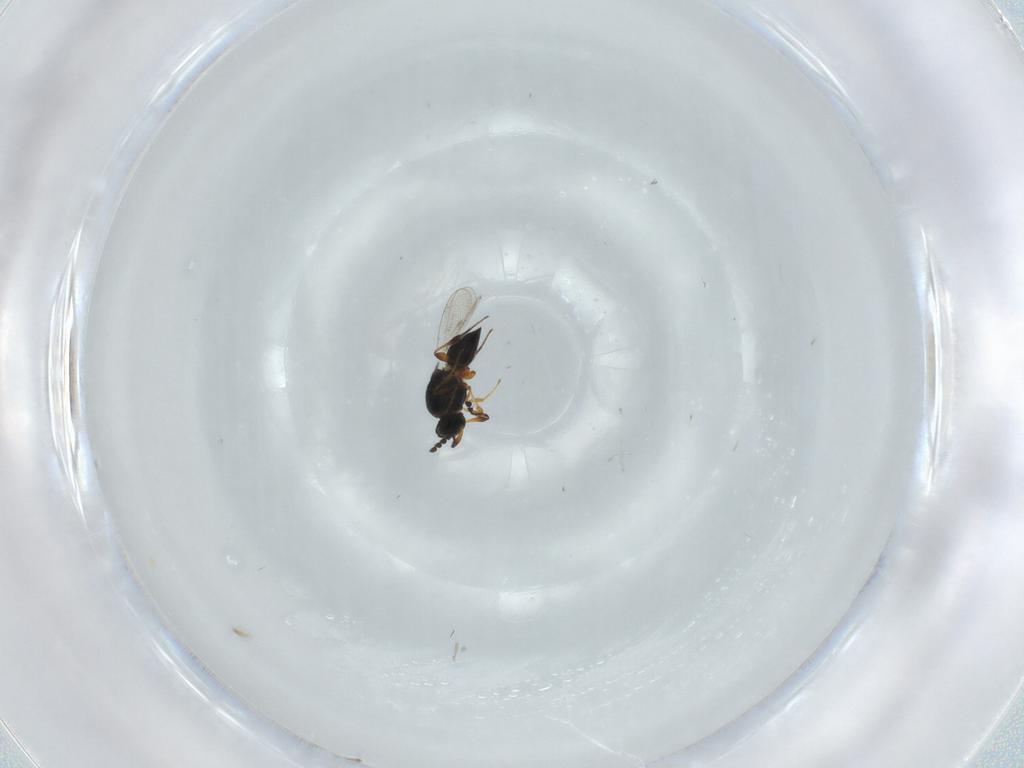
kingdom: Animalia
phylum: Arthropoda
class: Insecta
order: Hymenoptera
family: Platygastridae
